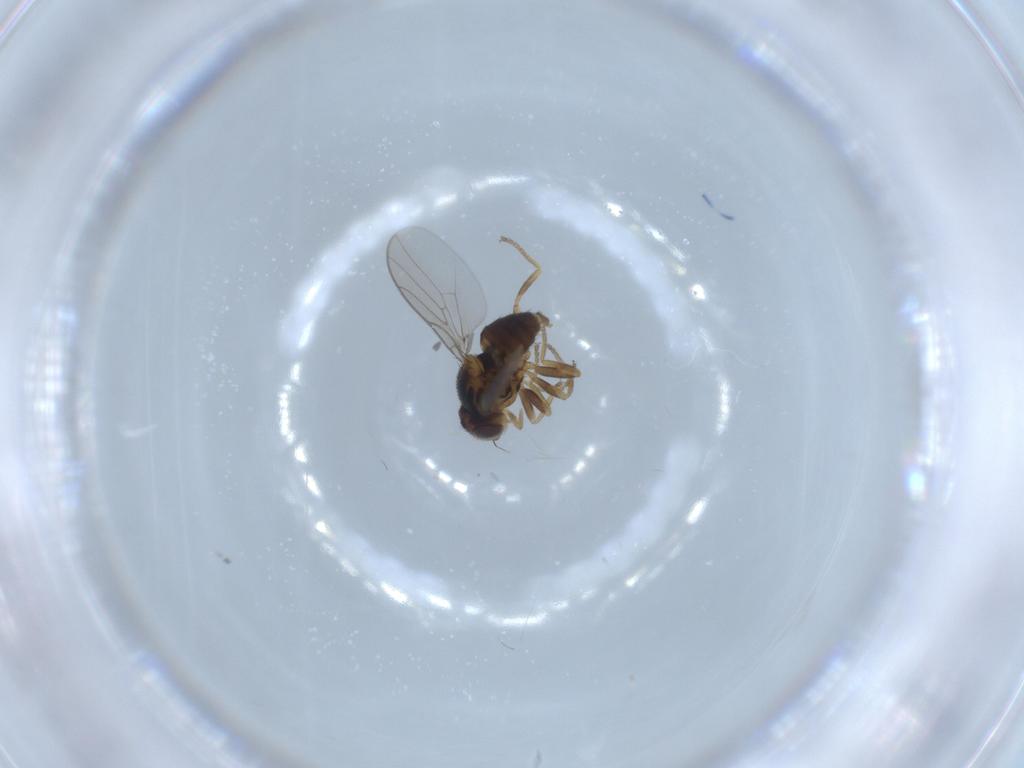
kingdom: Animalia
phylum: Arthropoda
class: Insecta
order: Diptera
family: Chloropidae
